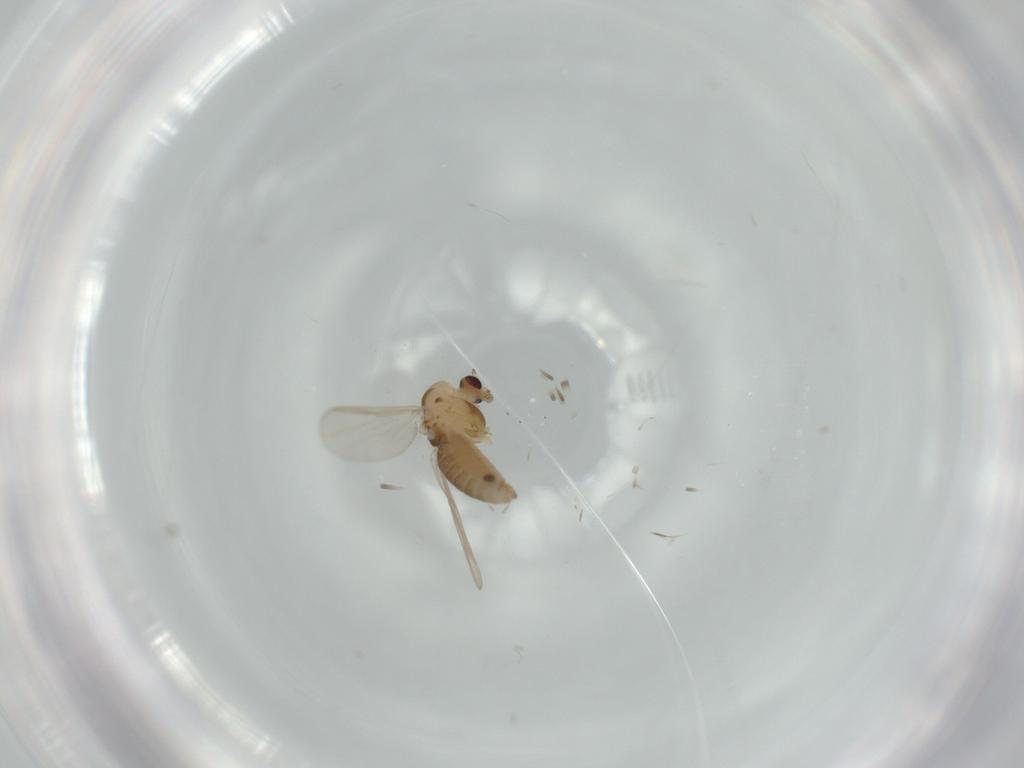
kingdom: Animalia
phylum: Arthropoda
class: Insecta
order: Diptera
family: Chironomidae
